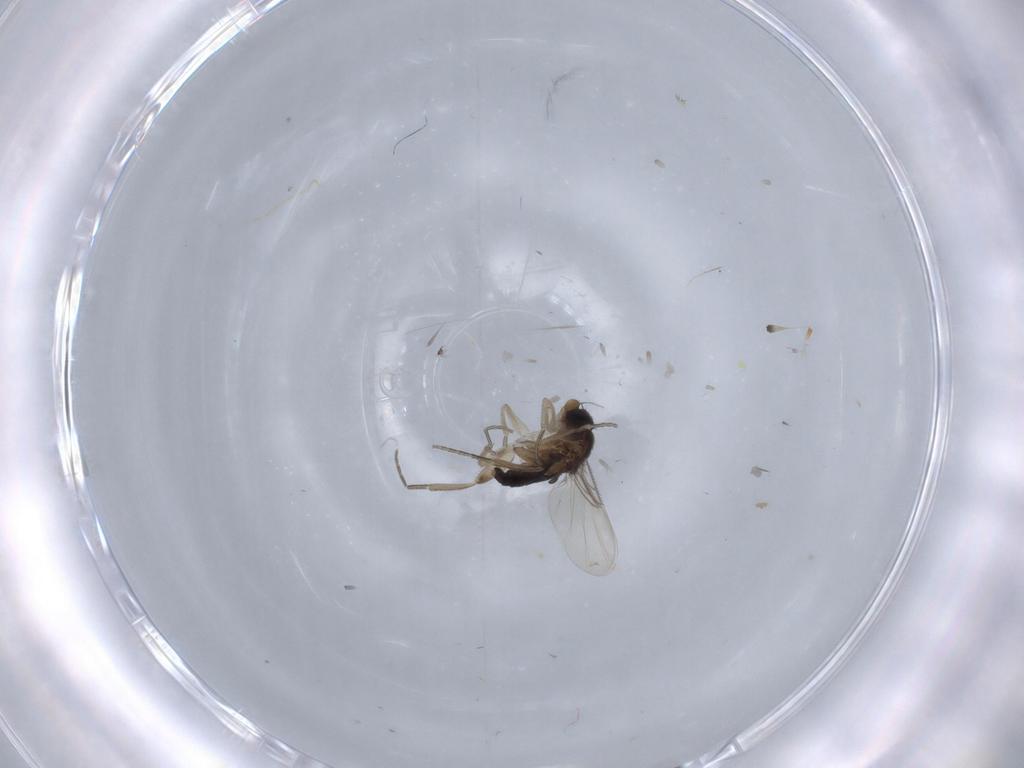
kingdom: Animalia
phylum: Arthropoda
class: Insecta
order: Diptera
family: Phoridae
